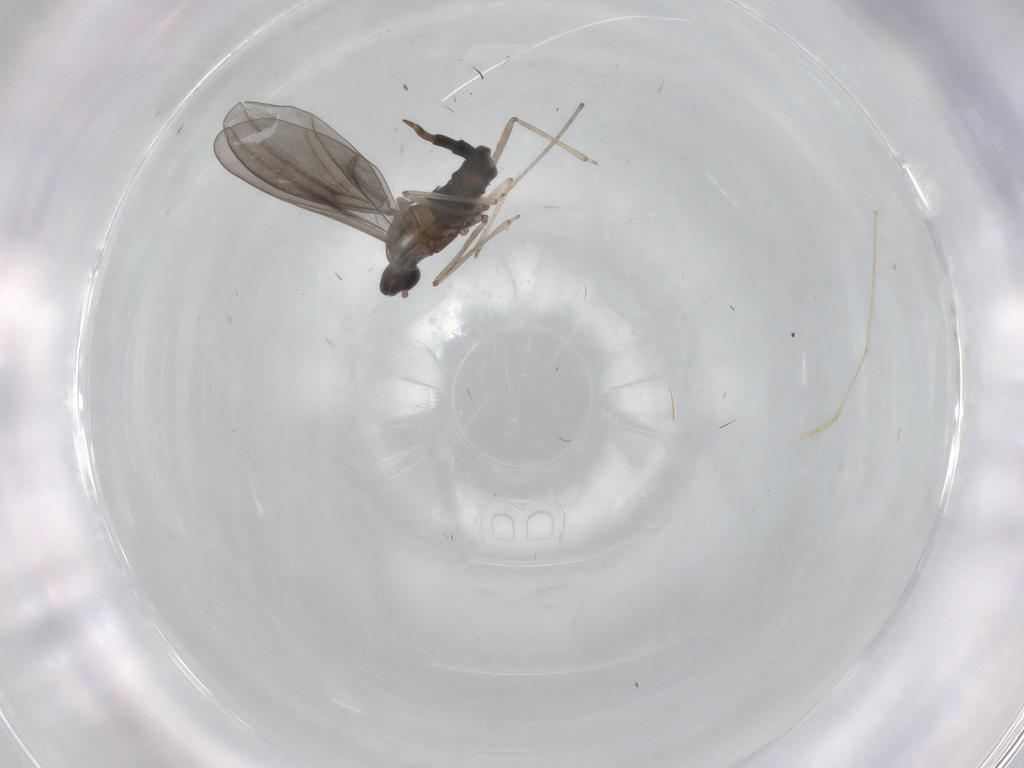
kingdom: Animalia
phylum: Arthropoda
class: Insecta
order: Diptera
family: Cecidomyiidae
